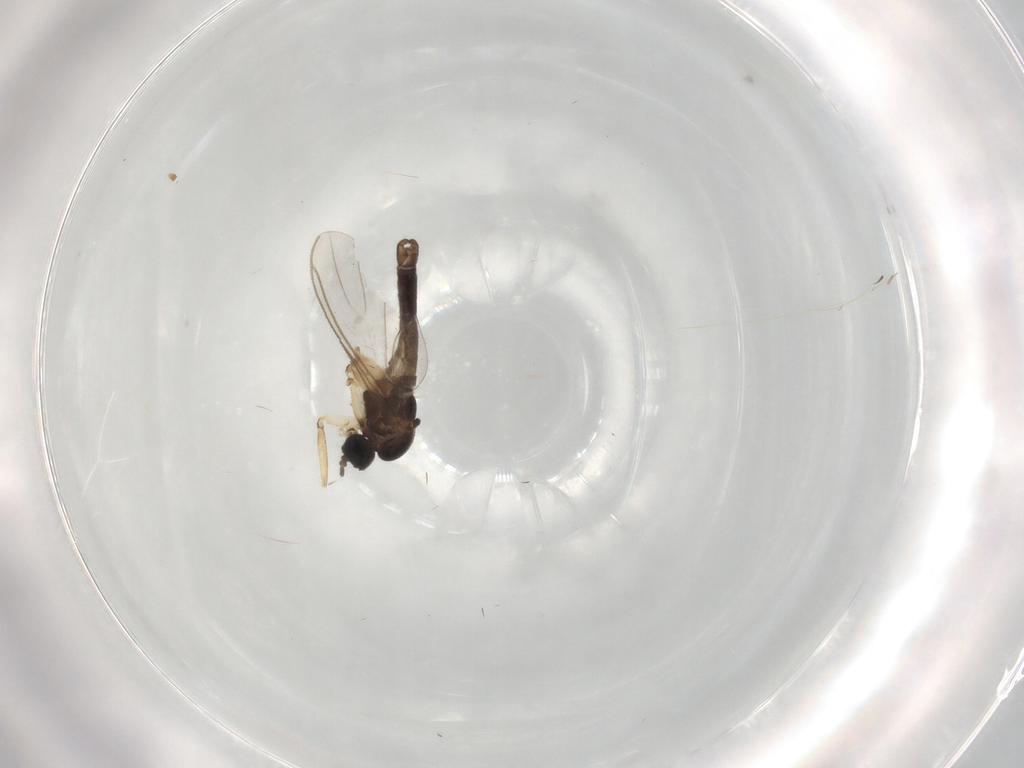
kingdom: Animalia
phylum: Arthropoda
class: Insecta
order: Diptera
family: Sciaridae
